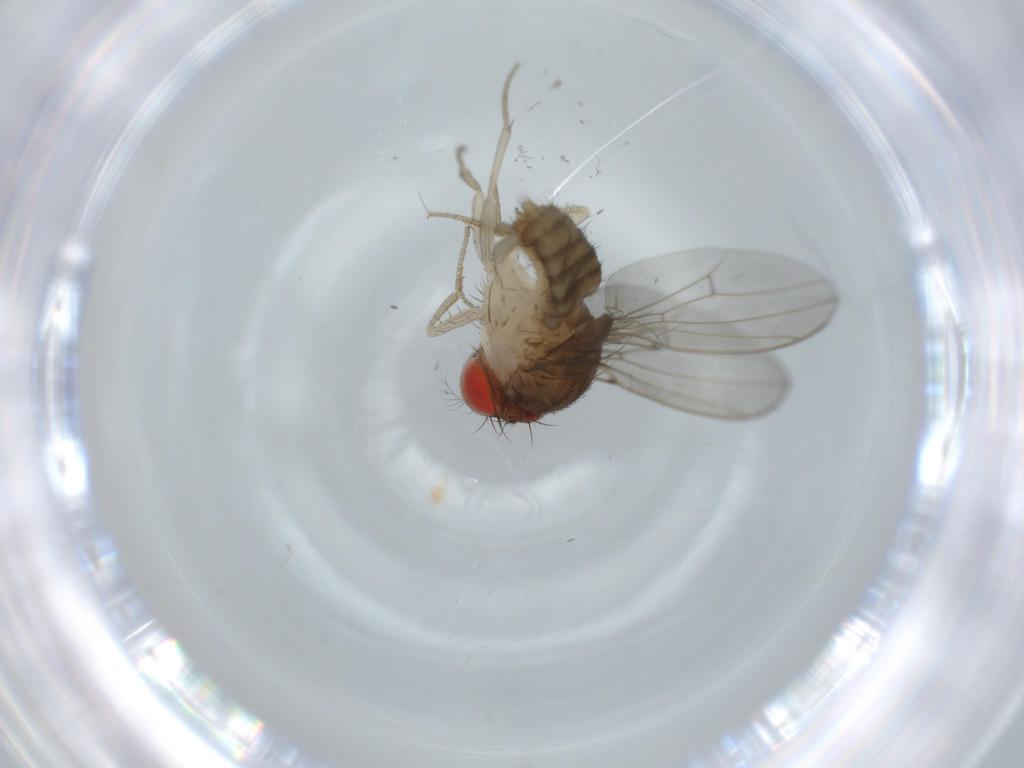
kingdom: Animalia
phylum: Arthropoda
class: Insecta
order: Diptera
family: Drosophilidae
